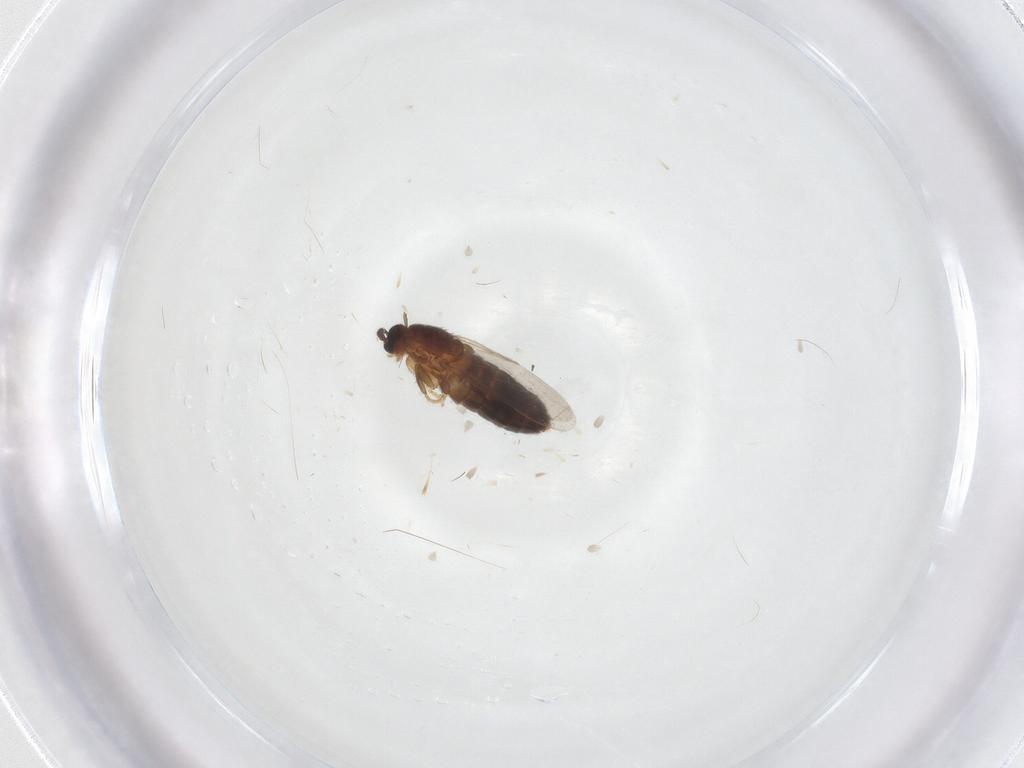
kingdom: Animalia
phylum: Arthropoda
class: Insecta
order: Diptera
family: Scatopsidae
